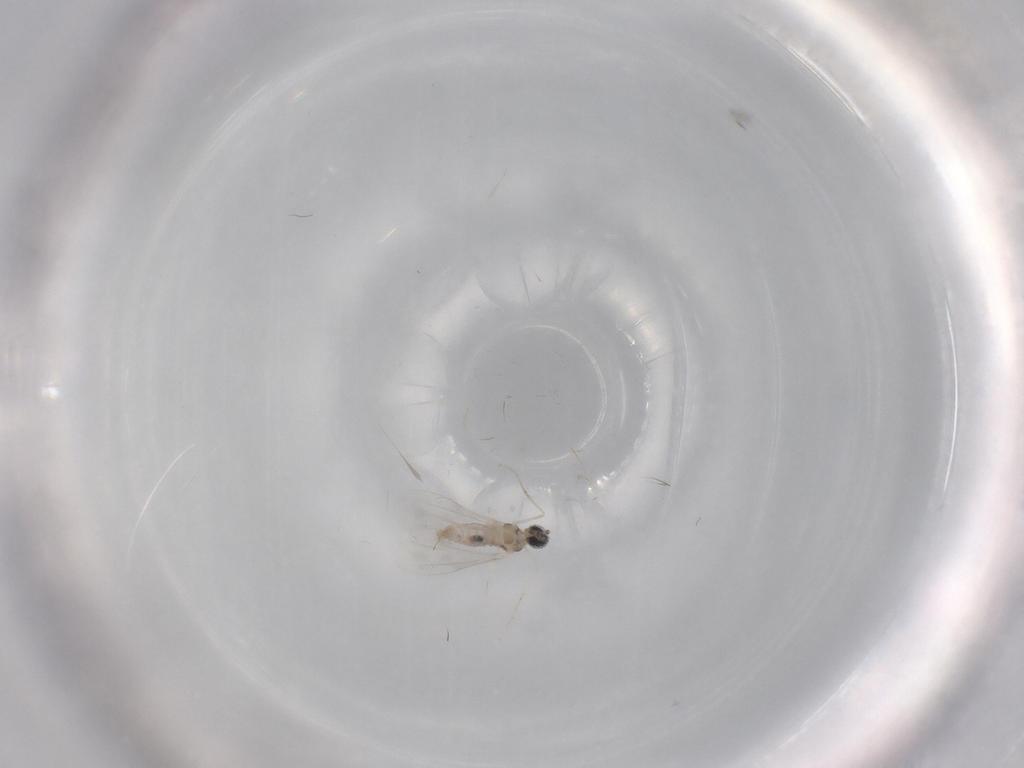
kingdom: Animalia
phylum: Arthropoda
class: Insecta
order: Diptera
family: Cecidomyiidae
